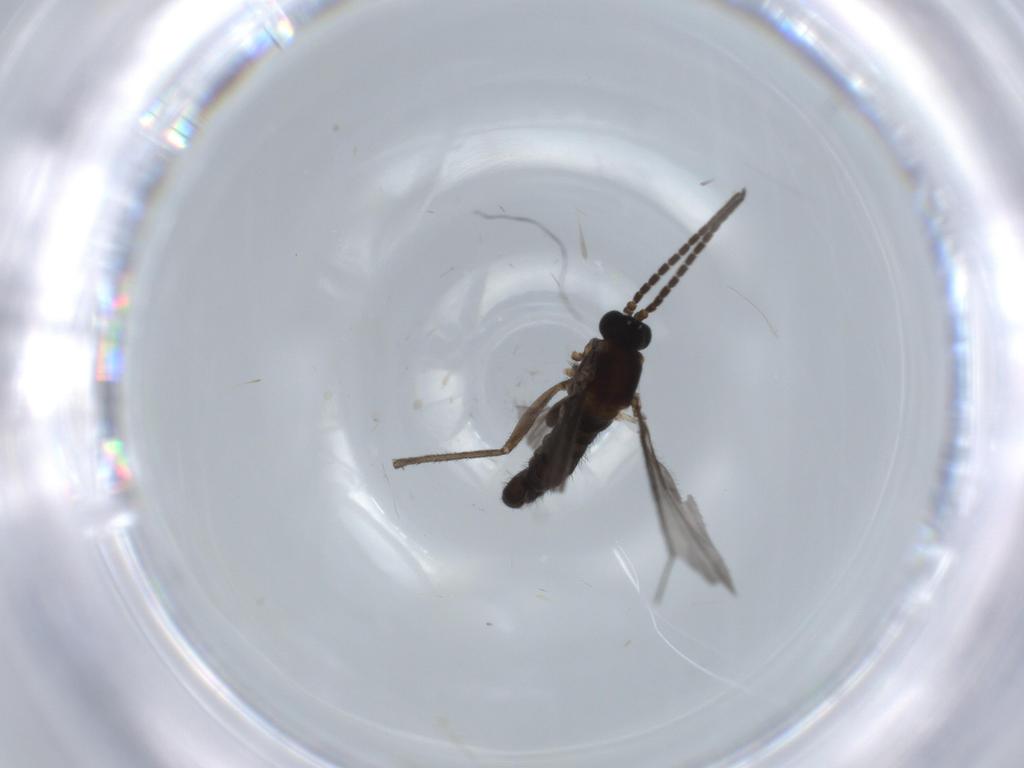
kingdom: Animalia
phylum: Arthropoda
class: Insecta
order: Diptera
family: Sciaridae
